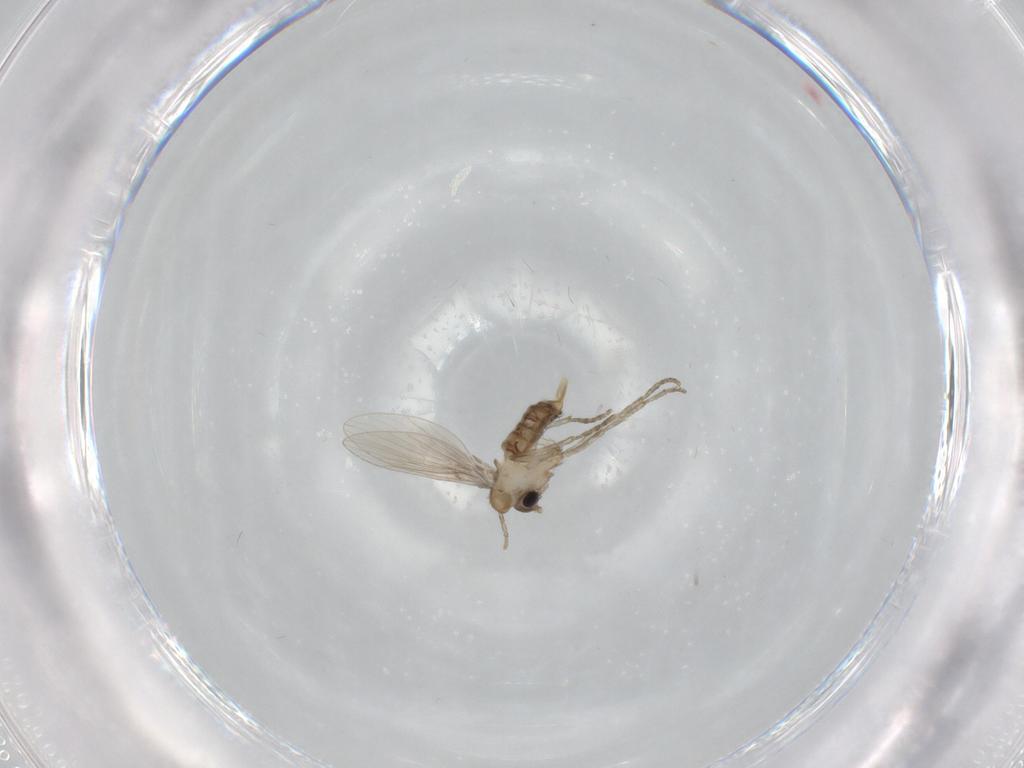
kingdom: Animalia
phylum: Arthropoda
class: Insecta
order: Diptera
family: Psychodidae
